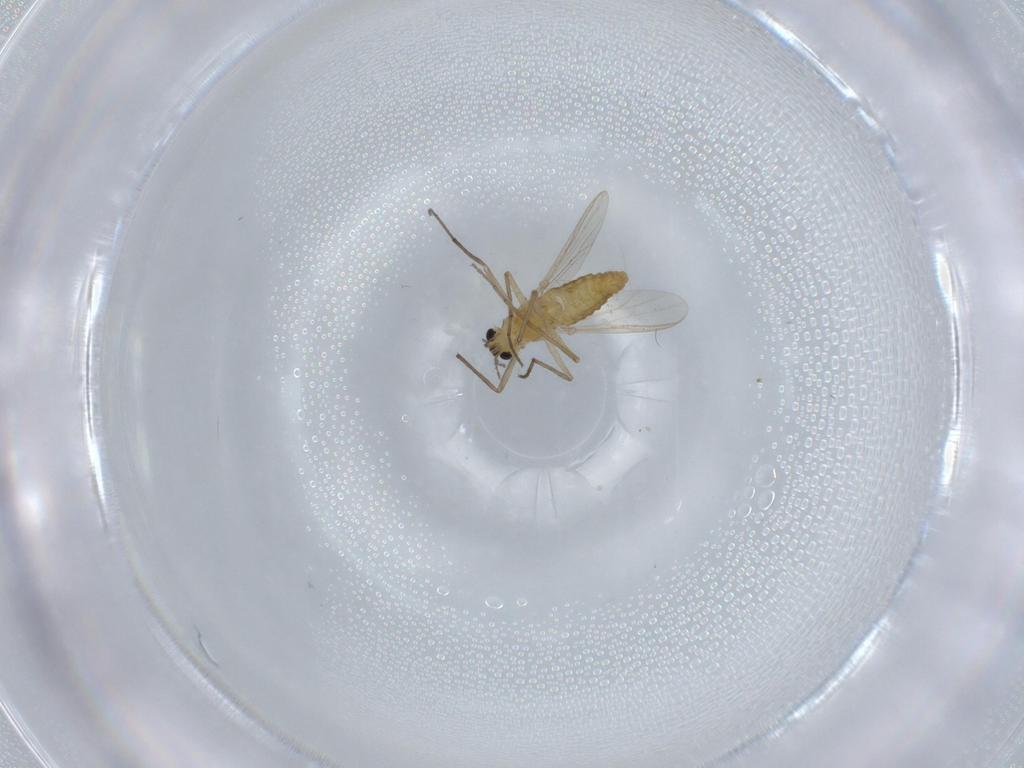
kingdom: Animalia
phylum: Arthropoda
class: Insecta
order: Diptera
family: Chironomidae
